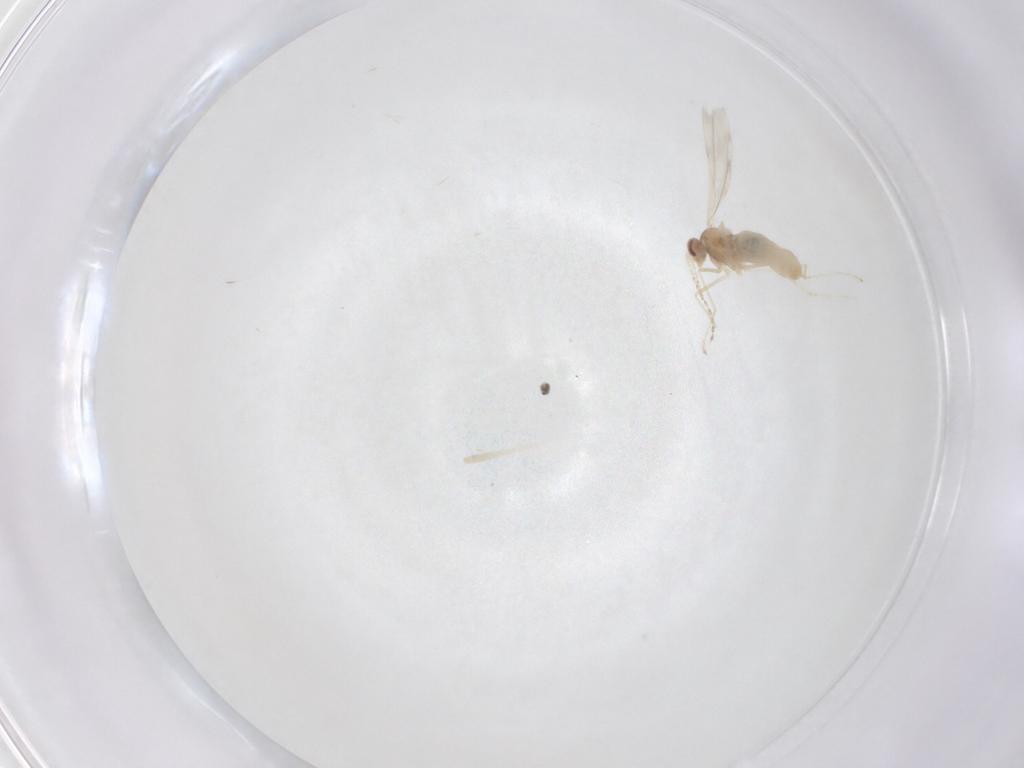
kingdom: Animalia
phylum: Arthropoda
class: Insecta
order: Diptera
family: Cecidomyiidae
